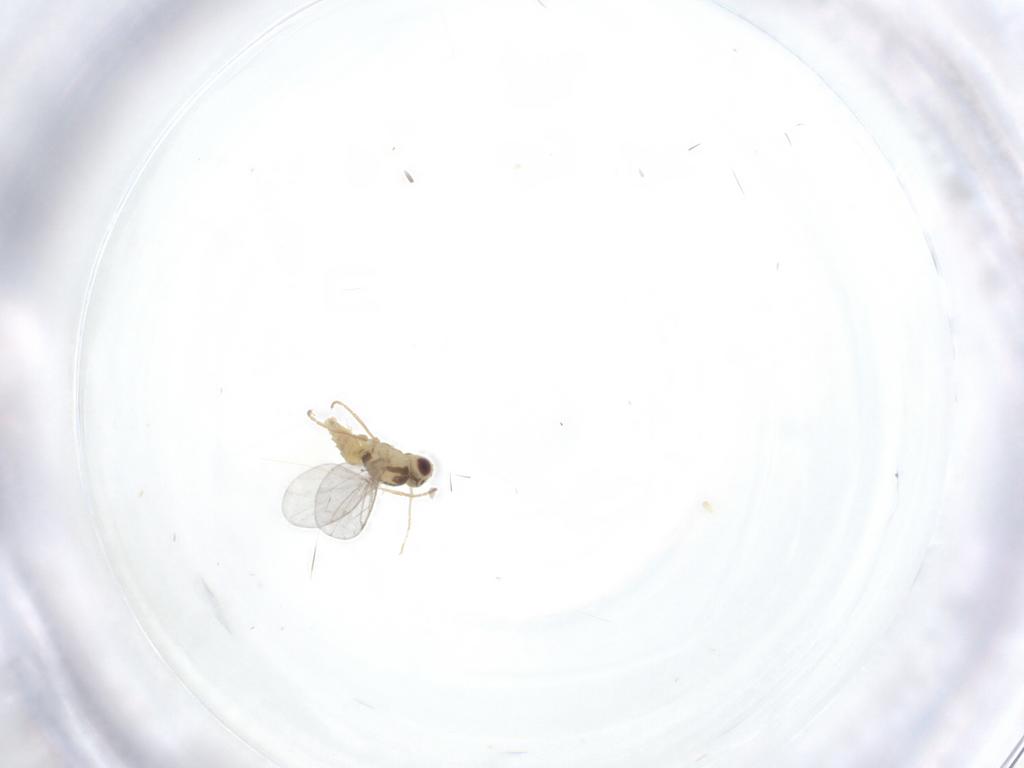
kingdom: Animalia
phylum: Arthropoda
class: Insecta
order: Diptera
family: Agromyzidae
